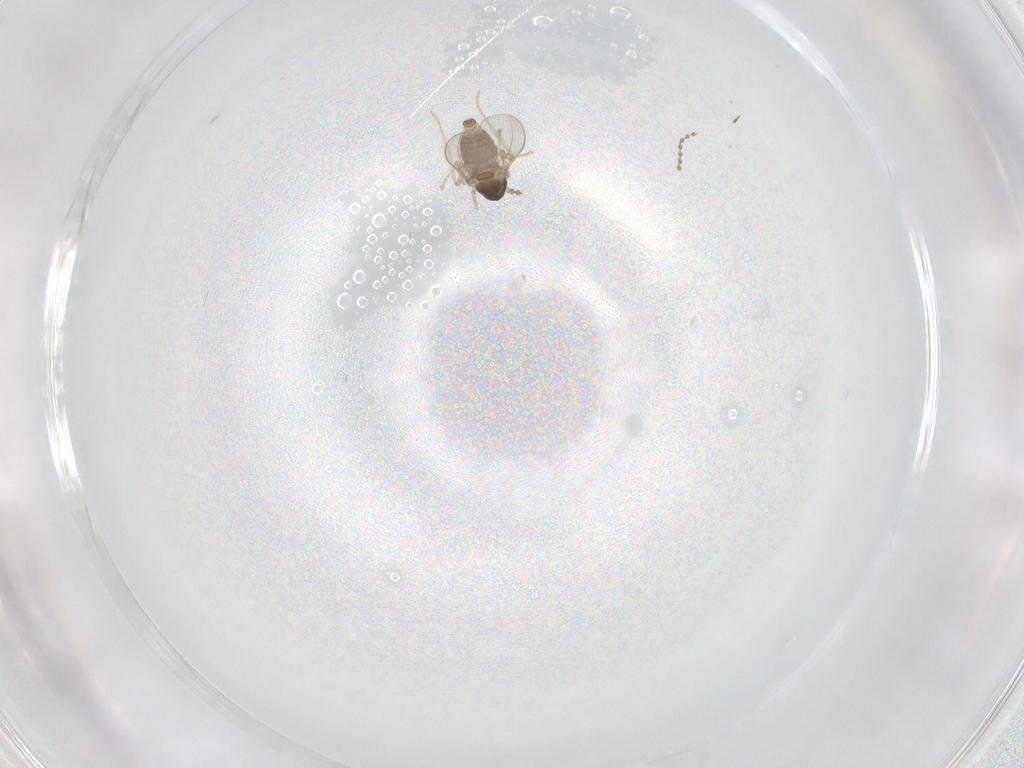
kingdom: Animalia
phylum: Arthropoda
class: Insecta
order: Diptera
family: Cecidomyiidae
